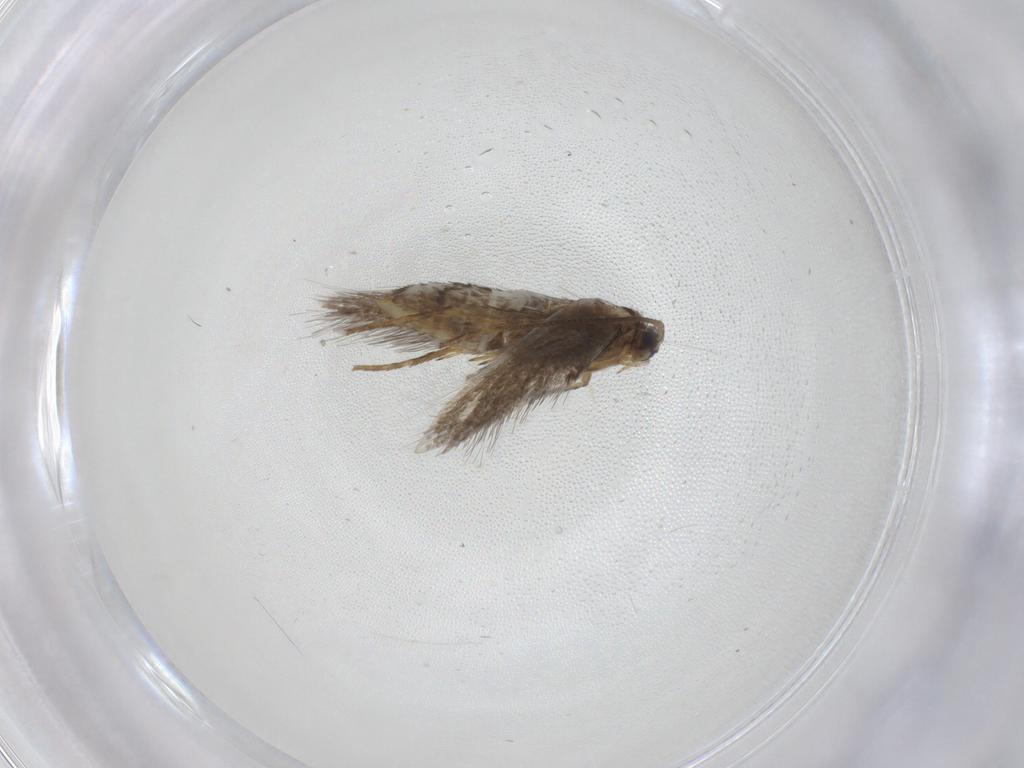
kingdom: Animalia
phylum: Arthropoda
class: Insecta
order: Lepidoptera
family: Nepticulidae
